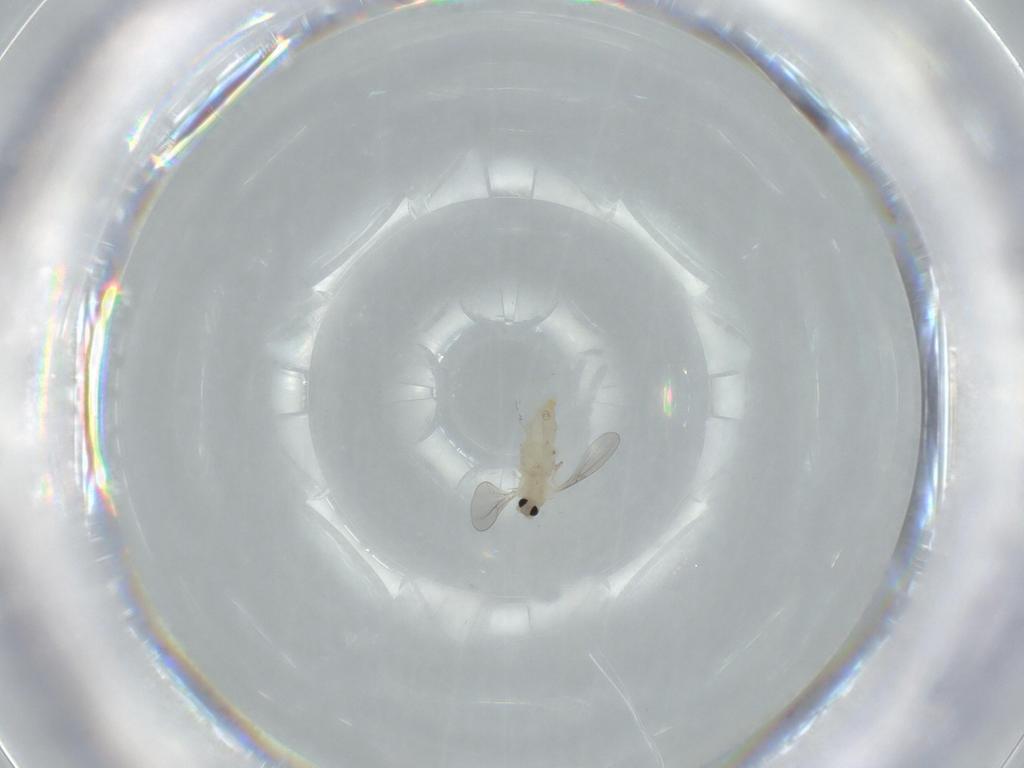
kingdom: Animalia
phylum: Arthropoda
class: Insecta
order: Diptera
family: Cecidomyiidae
